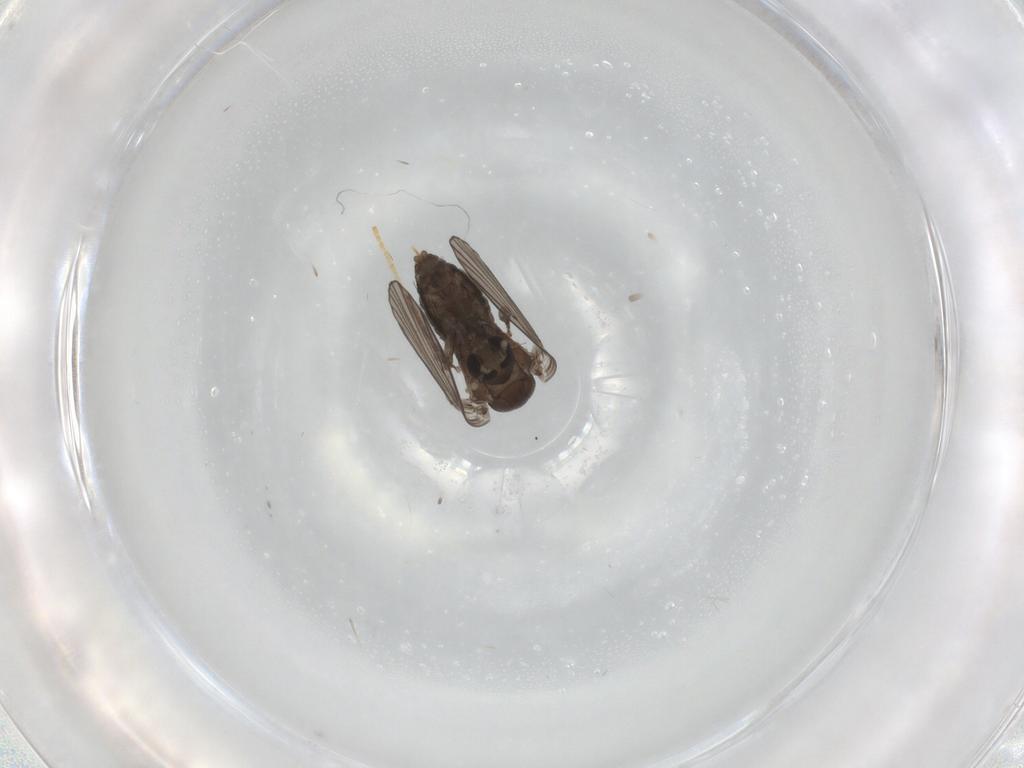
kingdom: Animalia
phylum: Arthropoda
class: Insecta
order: Diptera
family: Psychodidae
